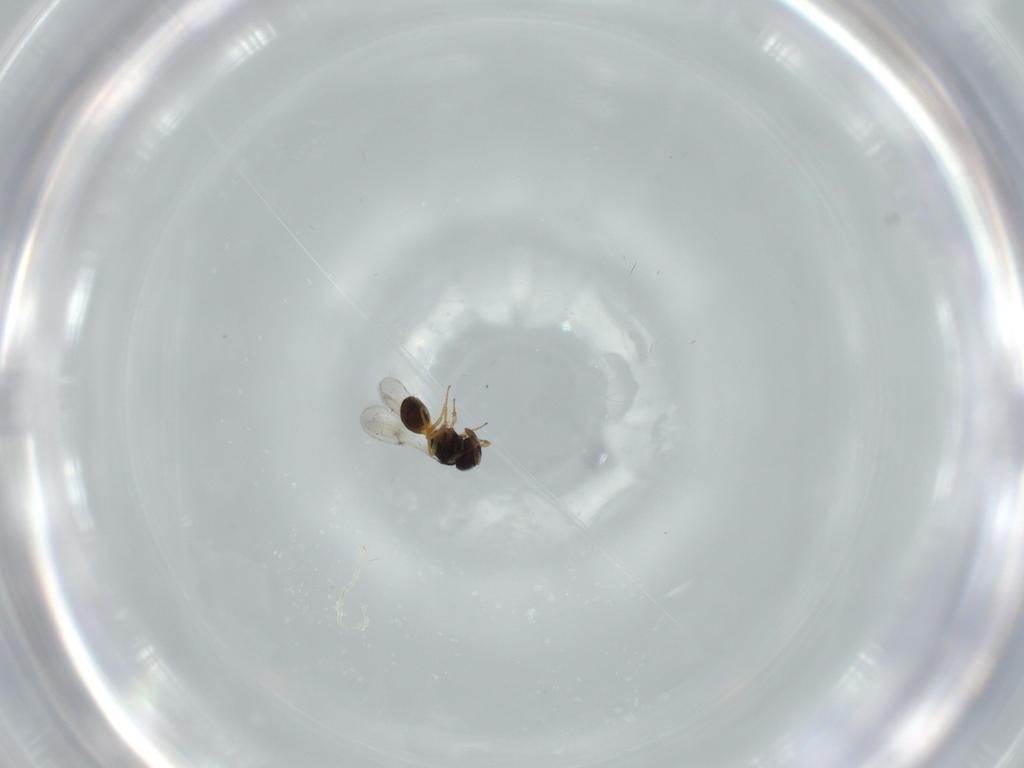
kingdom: Animalia
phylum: Arthropoda
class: Insecta
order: Hymenoptera
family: Scelionidae
